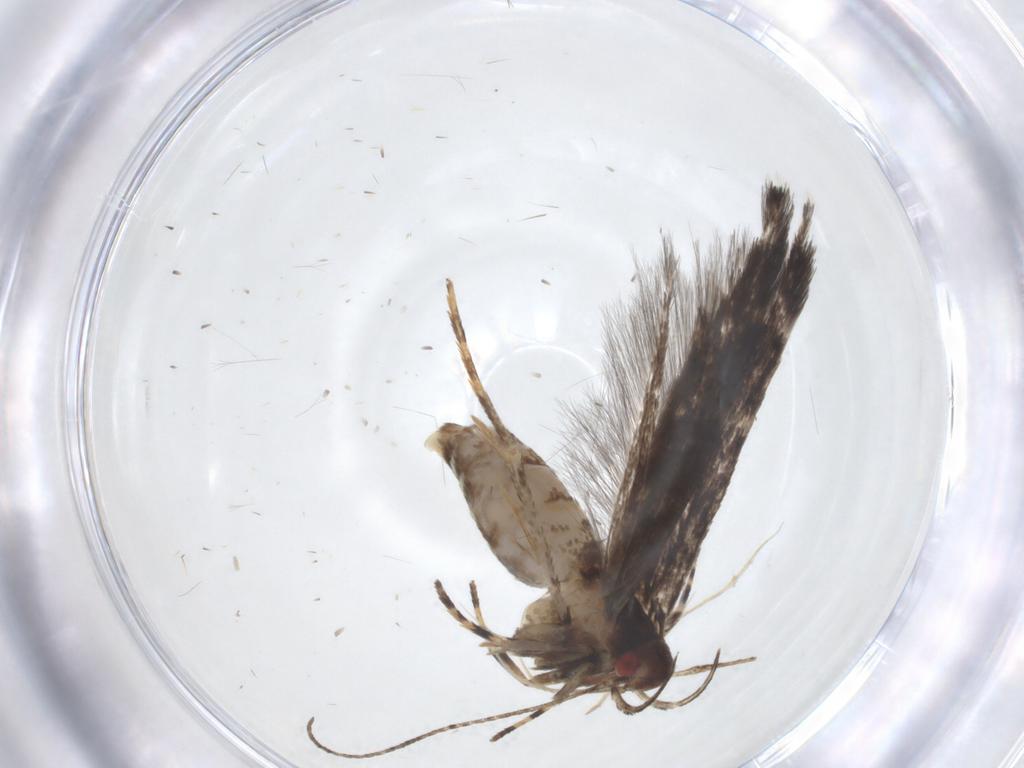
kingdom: Animalia
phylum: Arthropoda
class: Insecta
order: Lepidoptera
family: Cosmopterigidae
